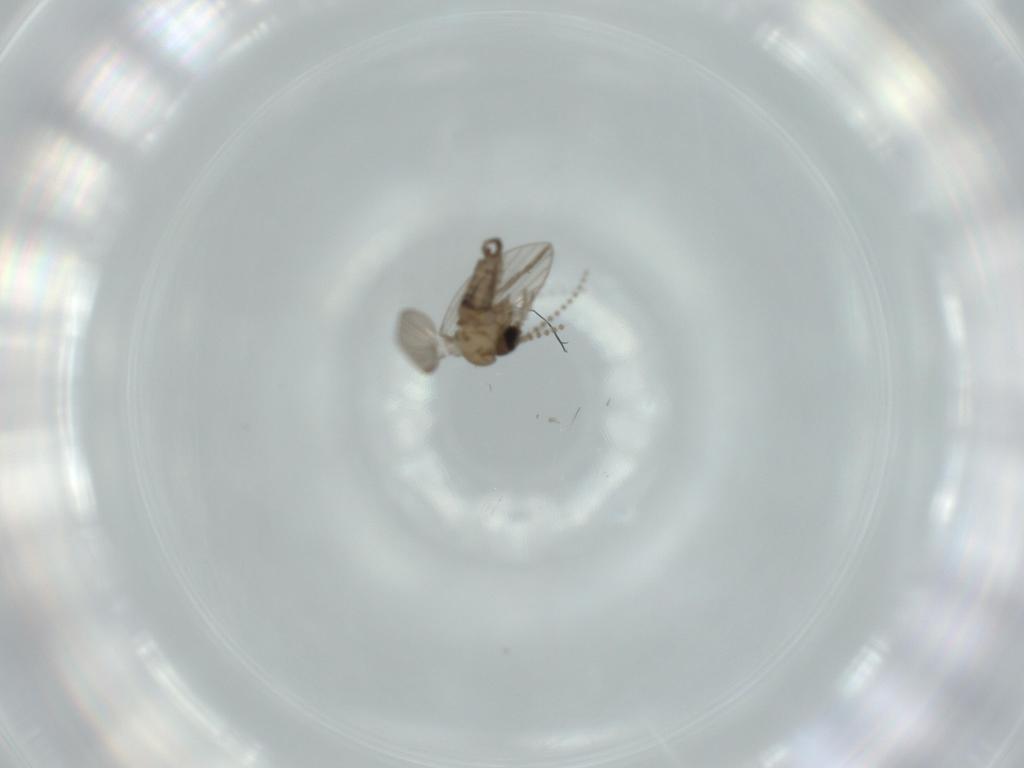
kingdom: Animalia
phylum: Arthropoda
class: Insecta
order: Diptera
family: Psychodidae
